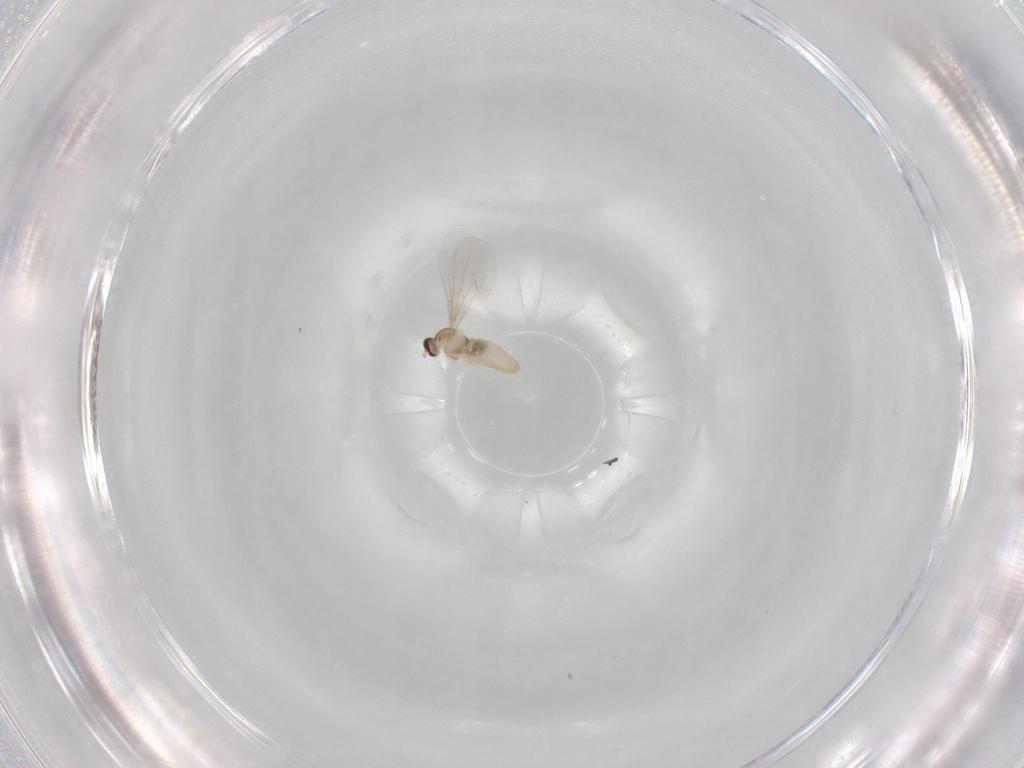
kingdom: Animalia
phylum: Arthropoda
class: Insecta
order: Diptera
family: Cecidomyiidae
